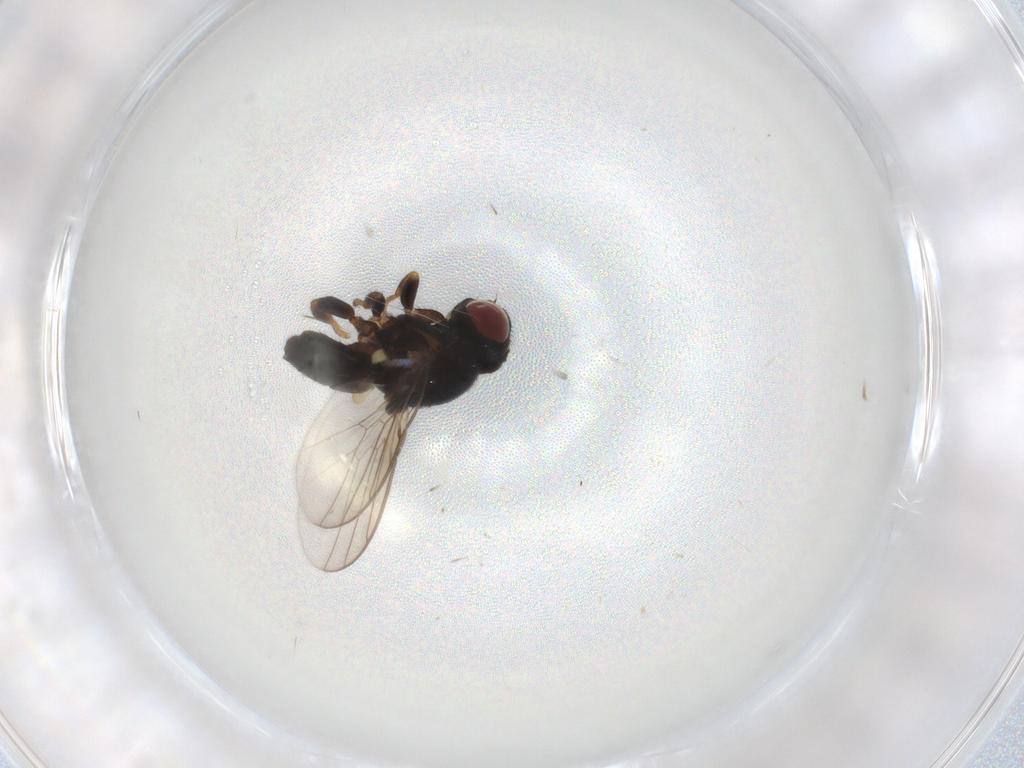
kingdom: Animalia
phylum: Arthropoda
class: Insecta
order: Diptera
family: Chloropidae
